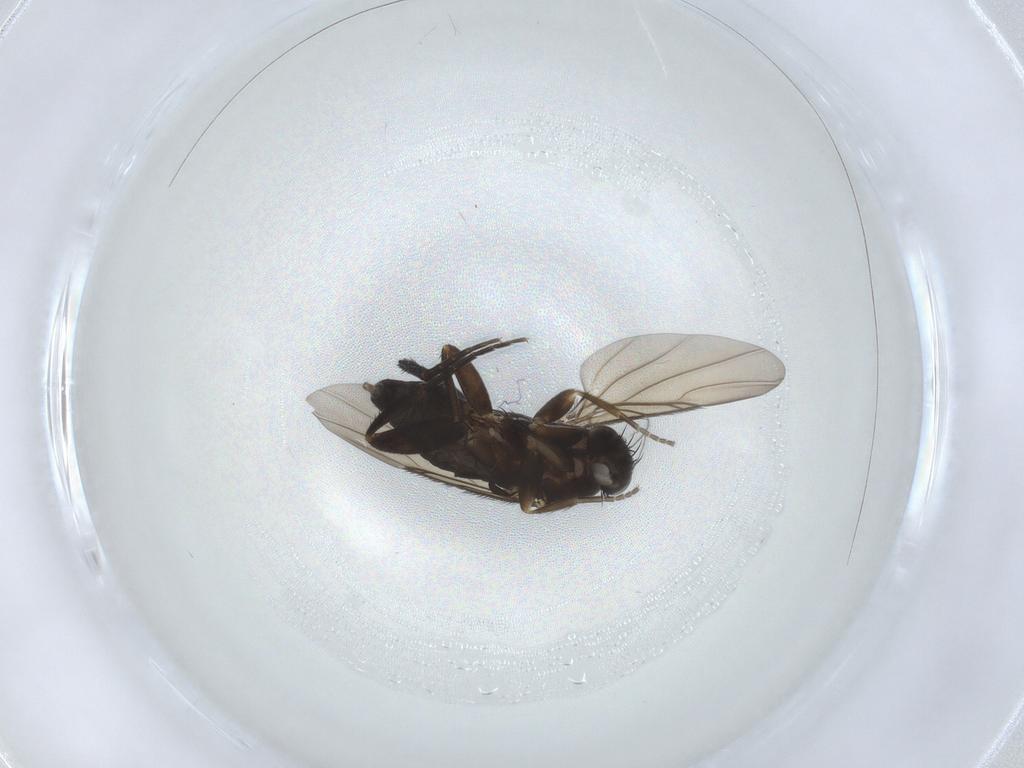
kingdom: Animalia
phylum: Arthropoda
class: Insecta
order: Diptera
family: Phoridae
